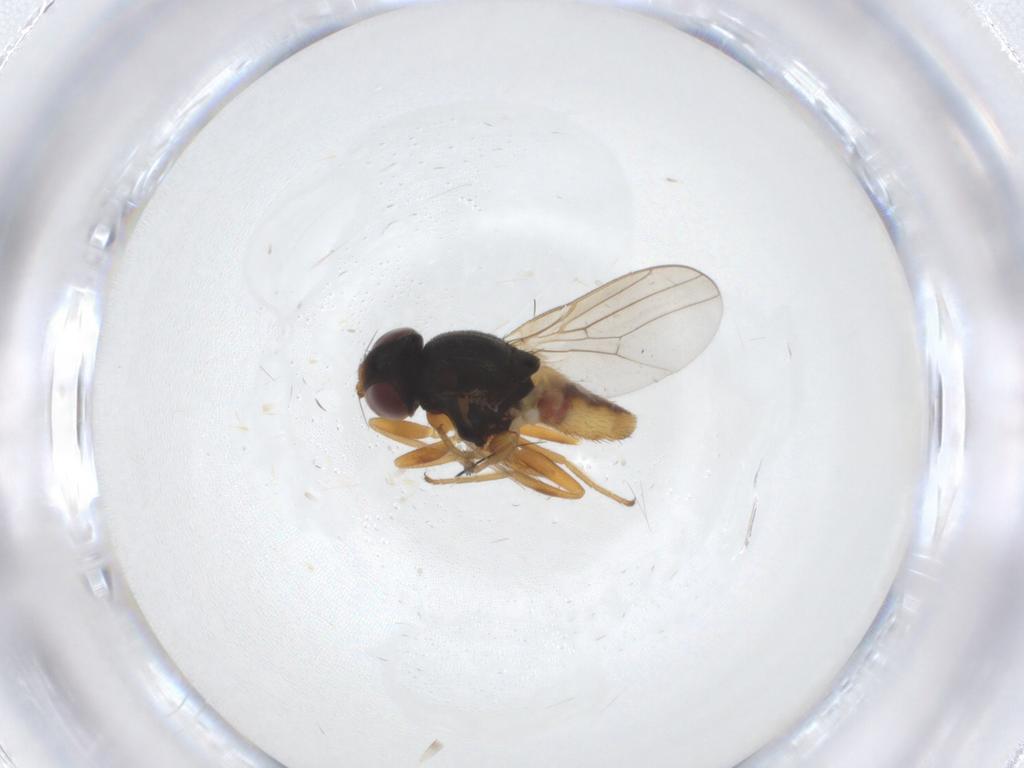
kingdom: Animalia
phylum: Arthropoda
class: Insecta
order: Diptera
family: Chloropidae
